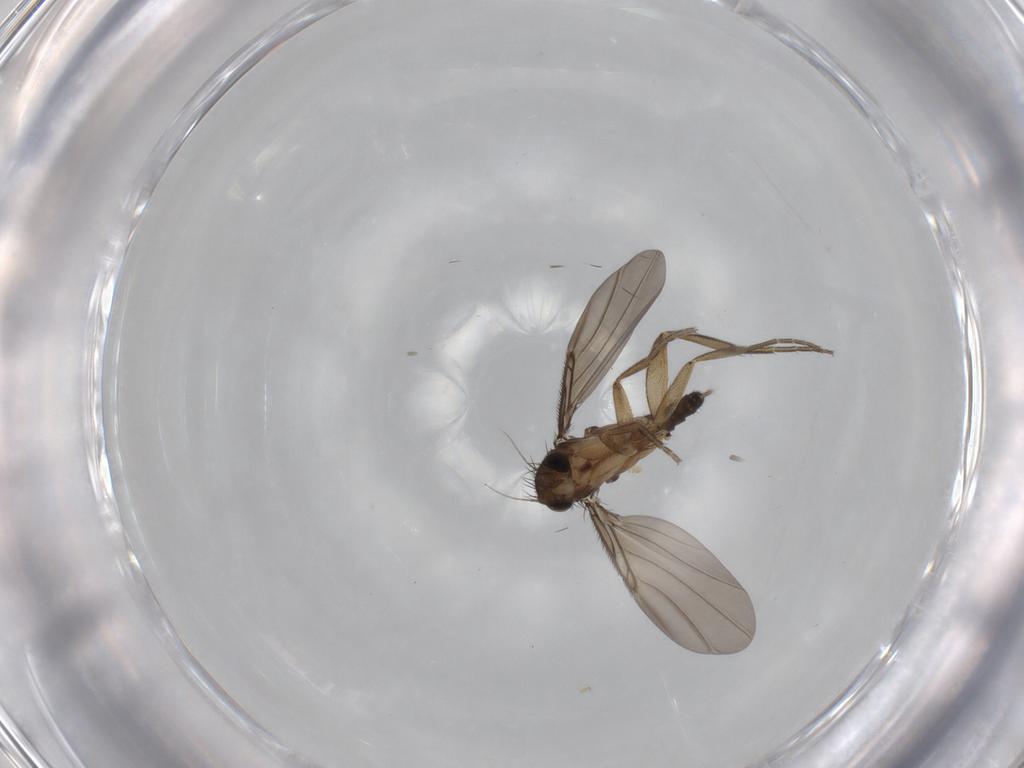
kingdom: Animalia
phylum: Arthropoda
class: Insecta
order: Diptera
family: Phoridae
